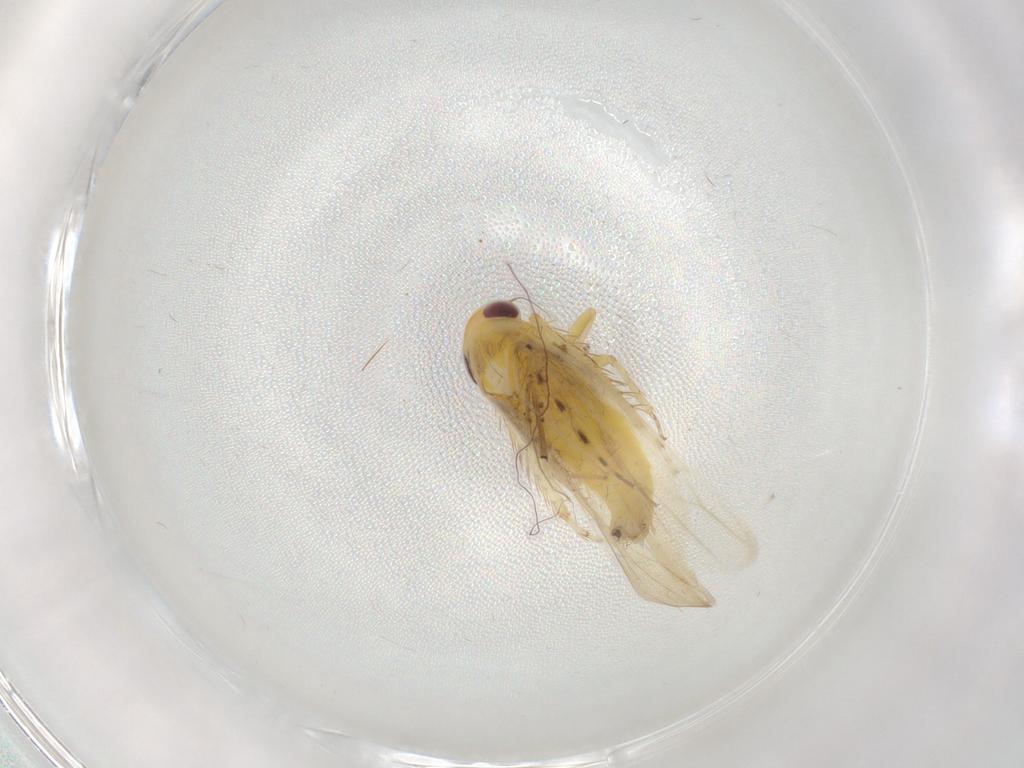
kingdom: Animalia
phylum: Arthropoda
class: Insecta
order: Hemiptera
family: Cicadellidae
